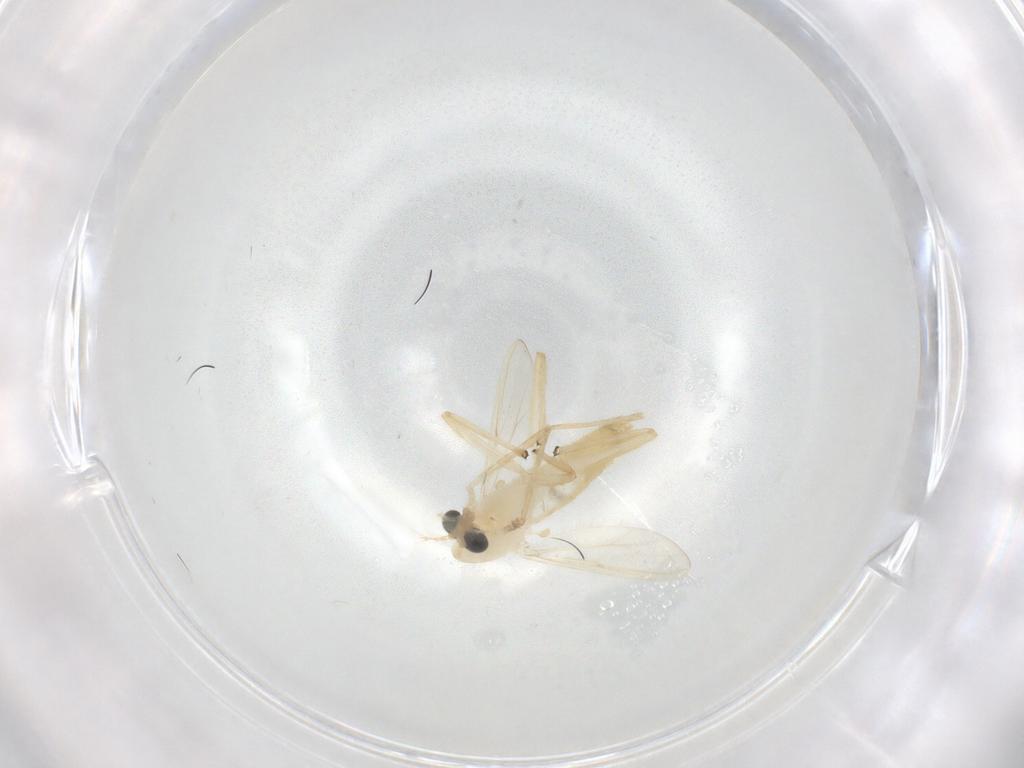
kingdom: Animalia
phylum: Arthropoda
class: Insecta
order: Diptera
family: Chironomidae
